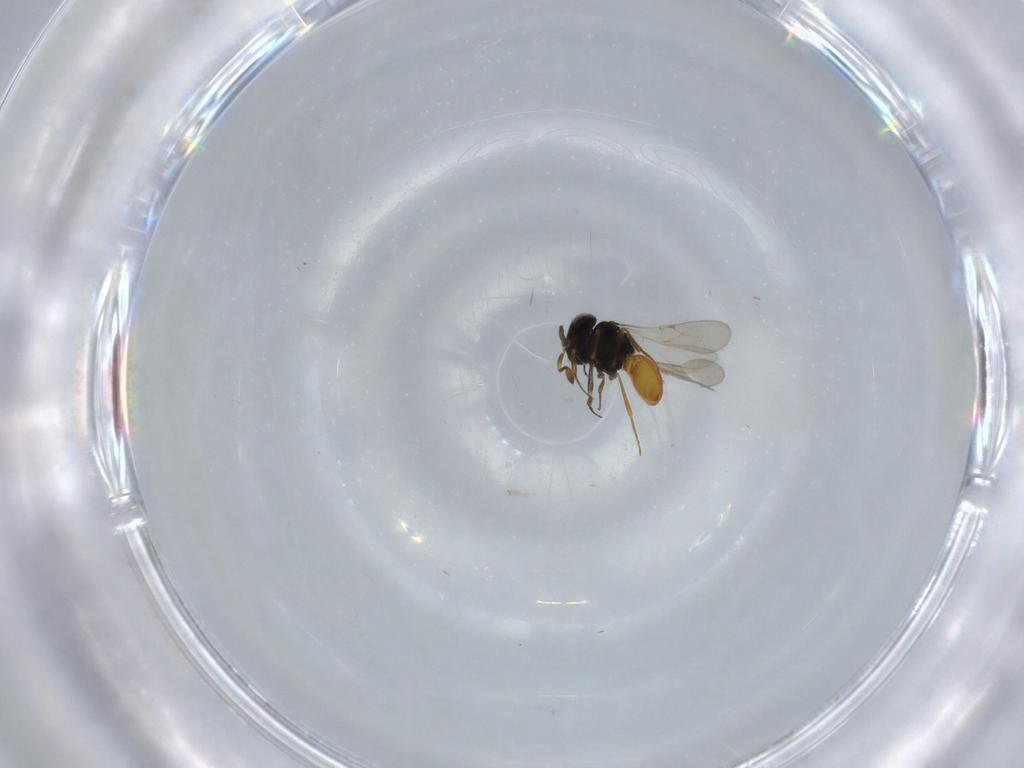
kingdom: Animalia
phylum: Arthropoda
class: Insecta
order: Hymenoptera
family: Scelionidae
